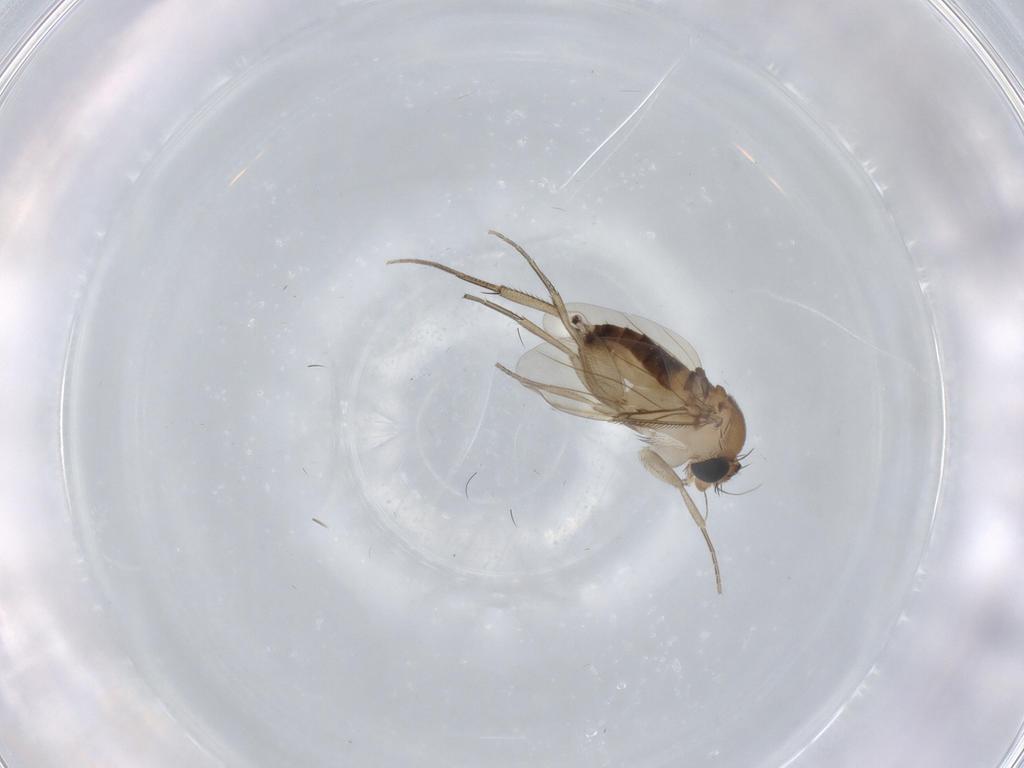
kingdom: Animalia
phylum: Arthropoda
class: Insecta
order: Diptera
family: Phoridae
